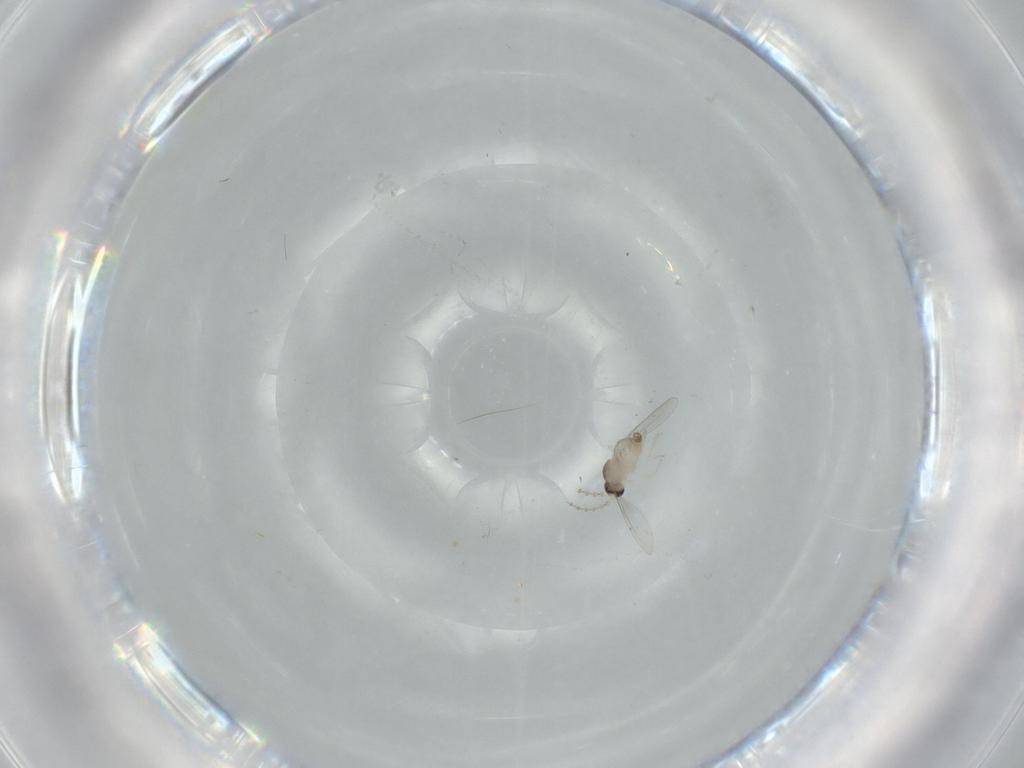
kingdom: Animalia
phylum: Arthropoda
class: Insecta
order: Diptera
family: Cecidomyiidae
